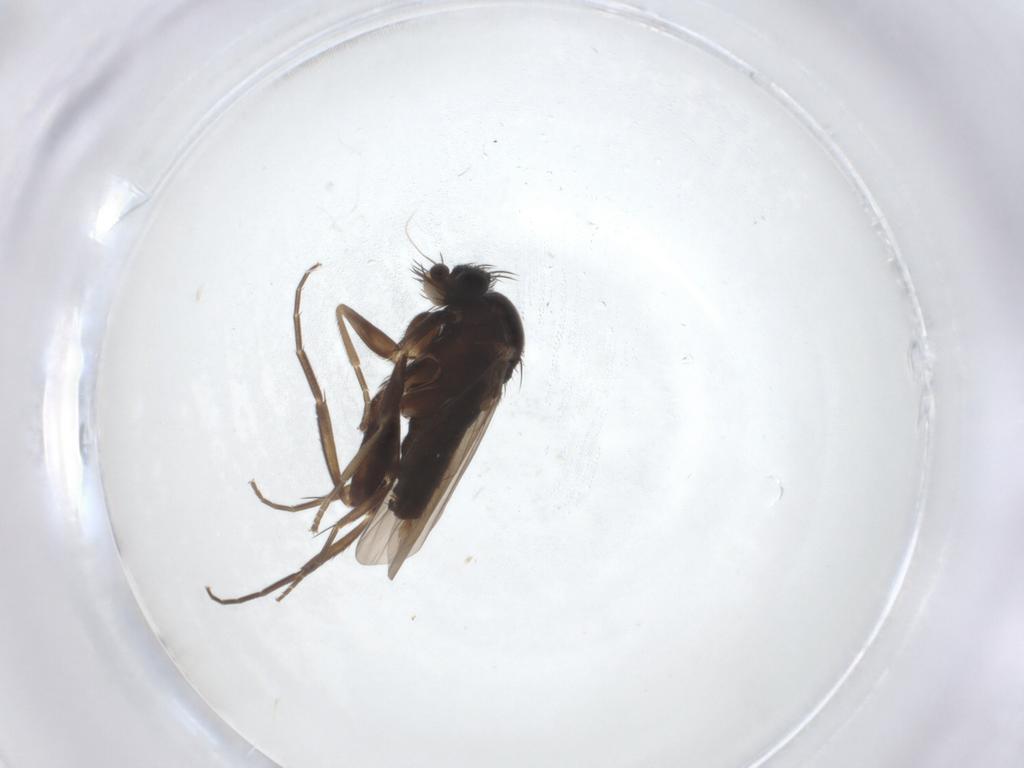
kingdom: Animalia
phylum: Arthropoda
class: Insecta
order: Diptera
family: Phoridae
